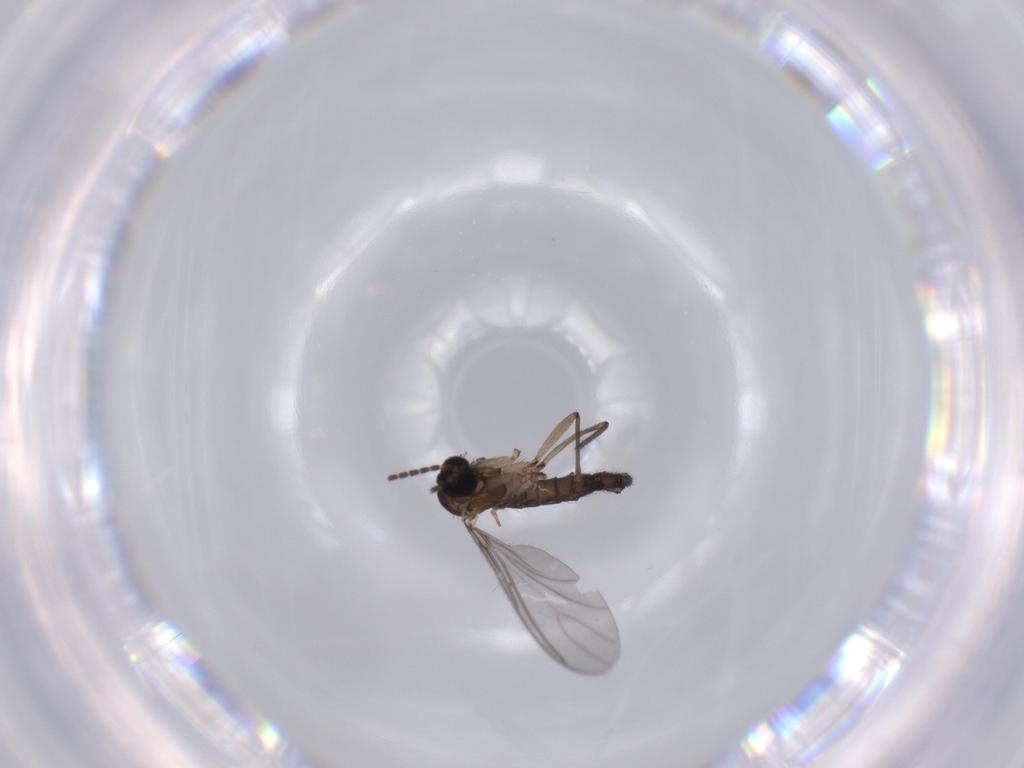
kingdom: Animalia
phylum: Arthropoda
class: Insecta
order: Diptera
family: Sciaridae
